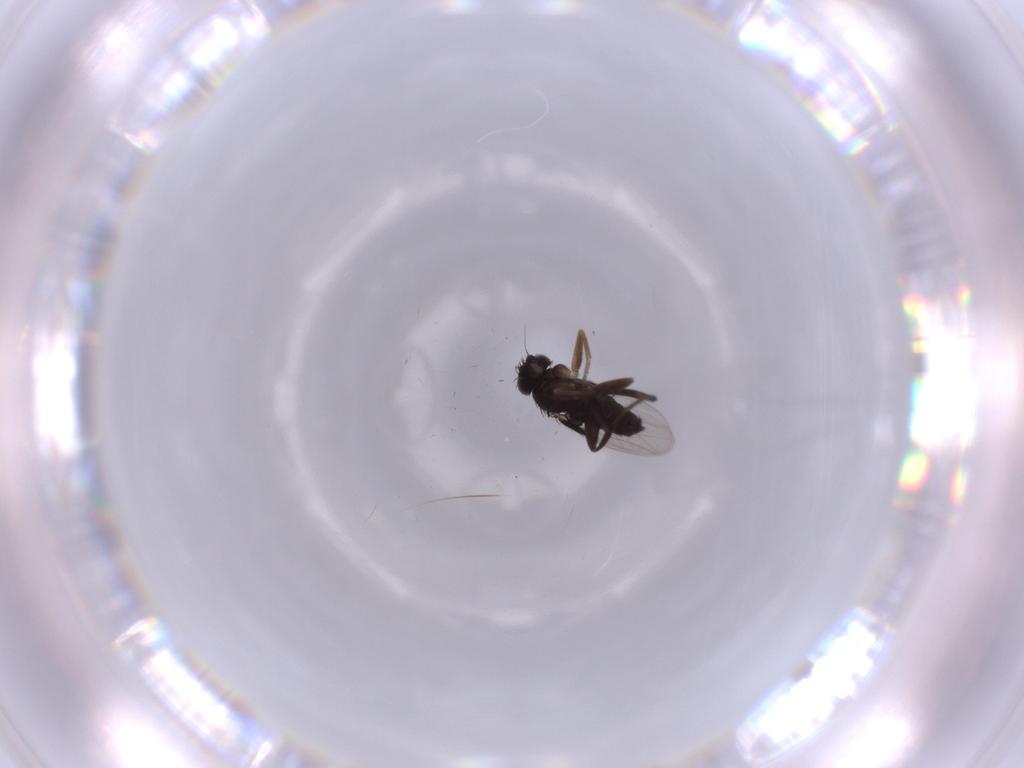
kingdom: Animalia
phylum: Arthropoda
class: Insecta
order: Diptera
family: Phoridae
